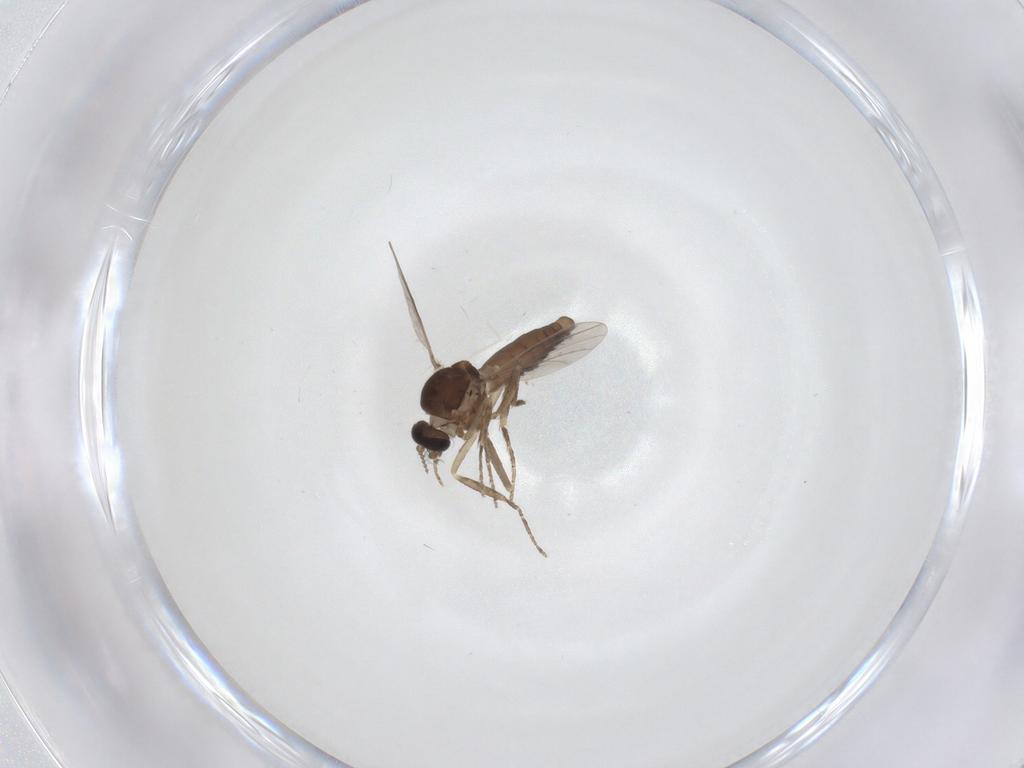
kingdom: Animalia
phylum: Arthropoda
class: Insecta
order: Diptera
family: Ceratopogonidae
